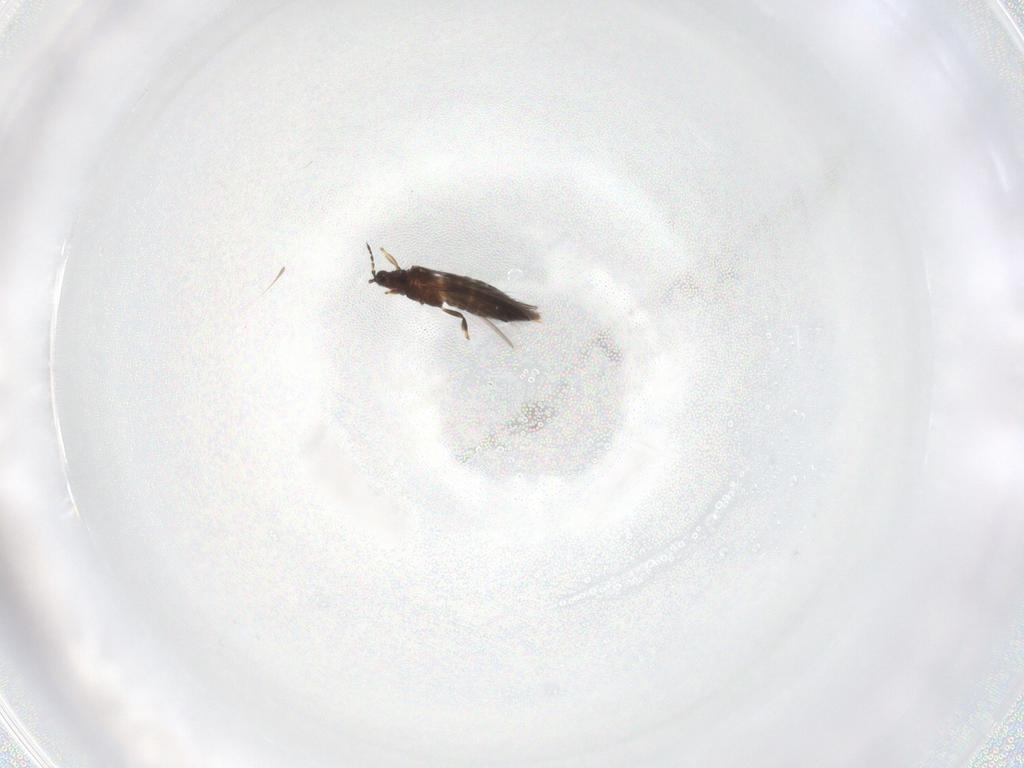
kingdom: Animalia
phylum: Arthropoda
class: Insecta
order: Thysanoptera
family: Thripidae
